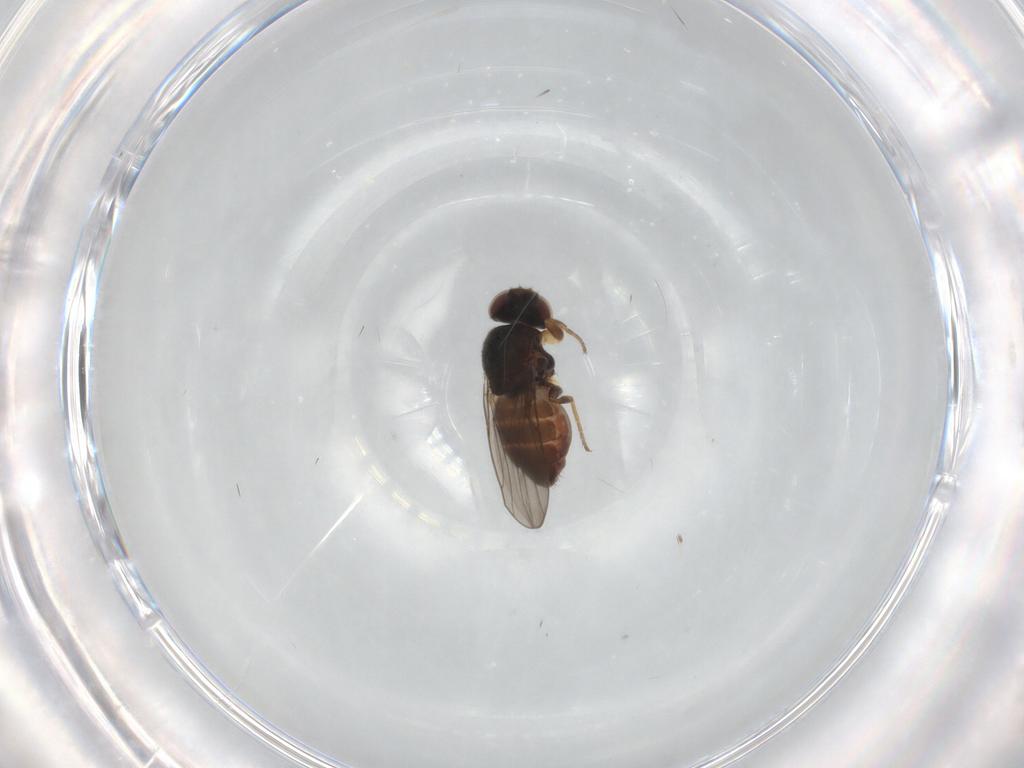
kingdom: Animalia
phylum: Arthropoda
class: Insecta
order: Diptera
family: Chloropidae
